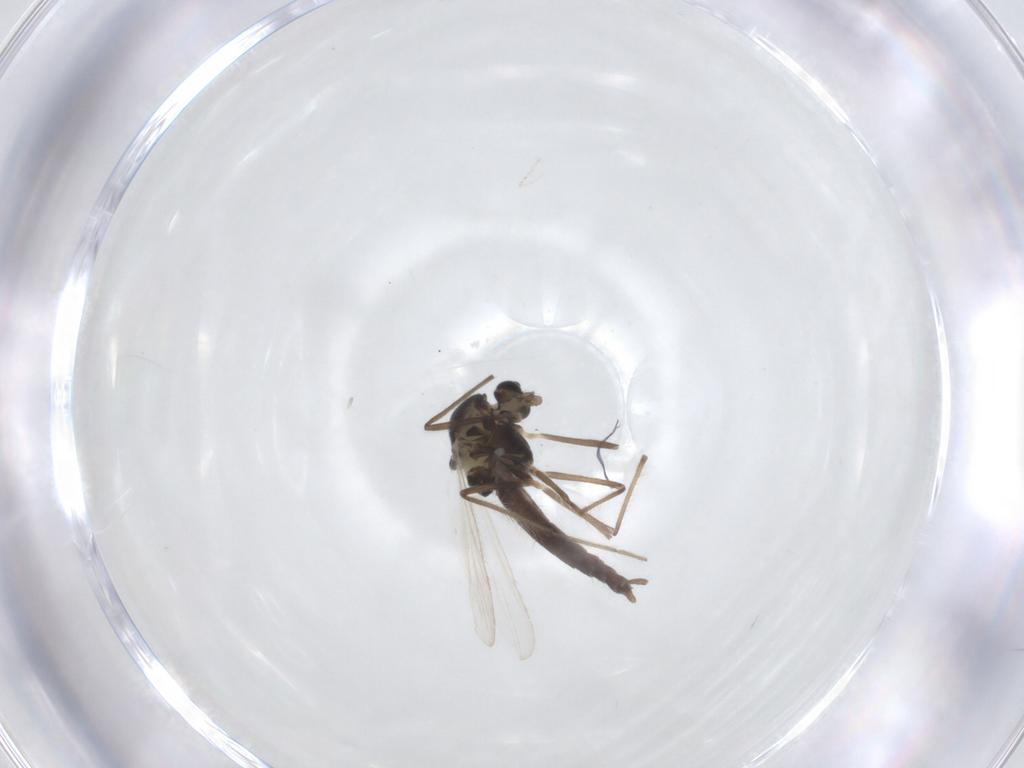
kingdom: Animalia
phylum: Arthropoda
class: Insecta
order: Diptera
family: Chironomidae
